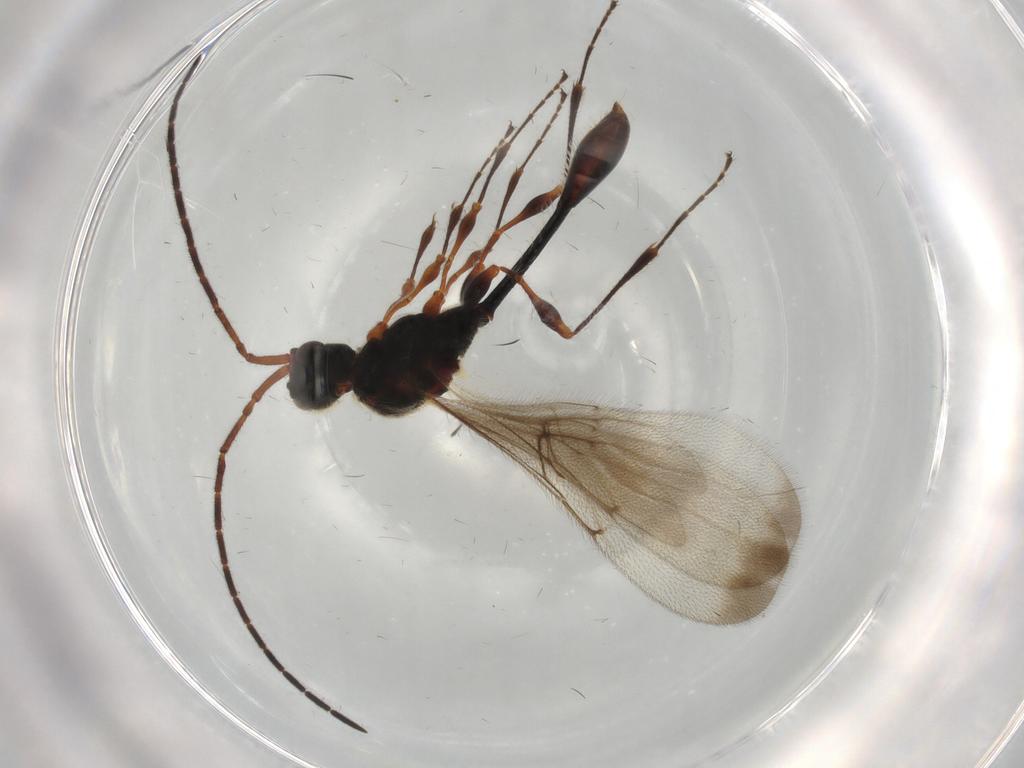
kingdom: Animalia
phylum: Arthropoda
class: Insecta
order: Hymenoptera
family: Diapriidae
